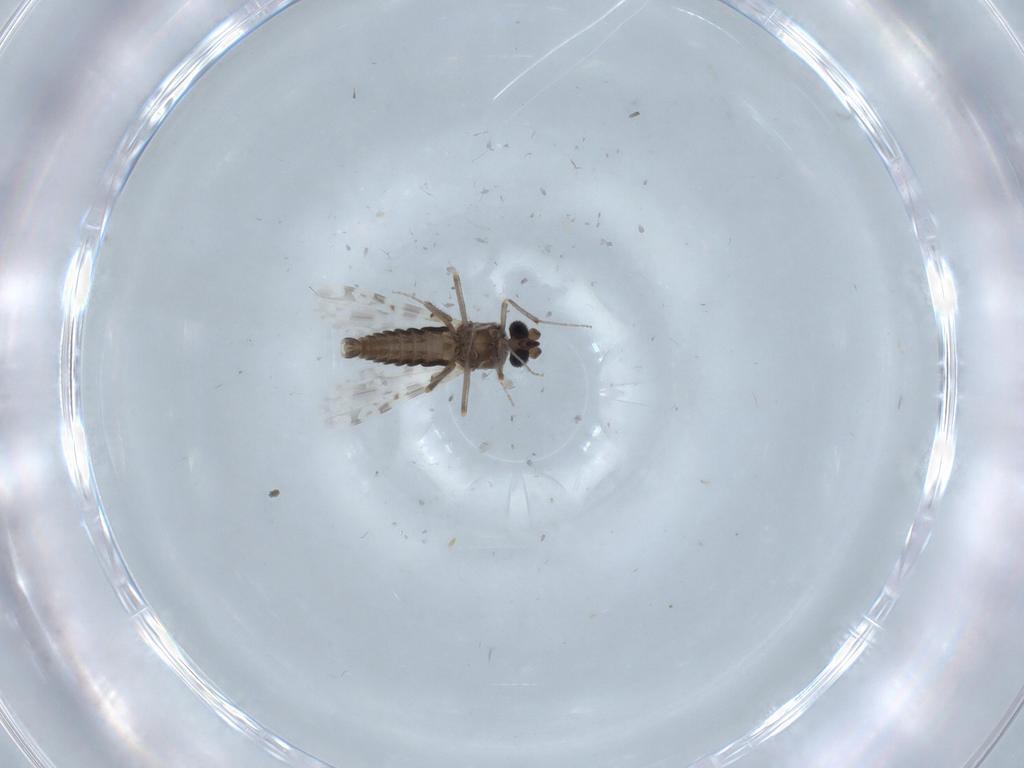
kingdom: Animalia
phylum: Arthropoda
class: Insecta
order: Diptera
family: Ceratopogonidae
